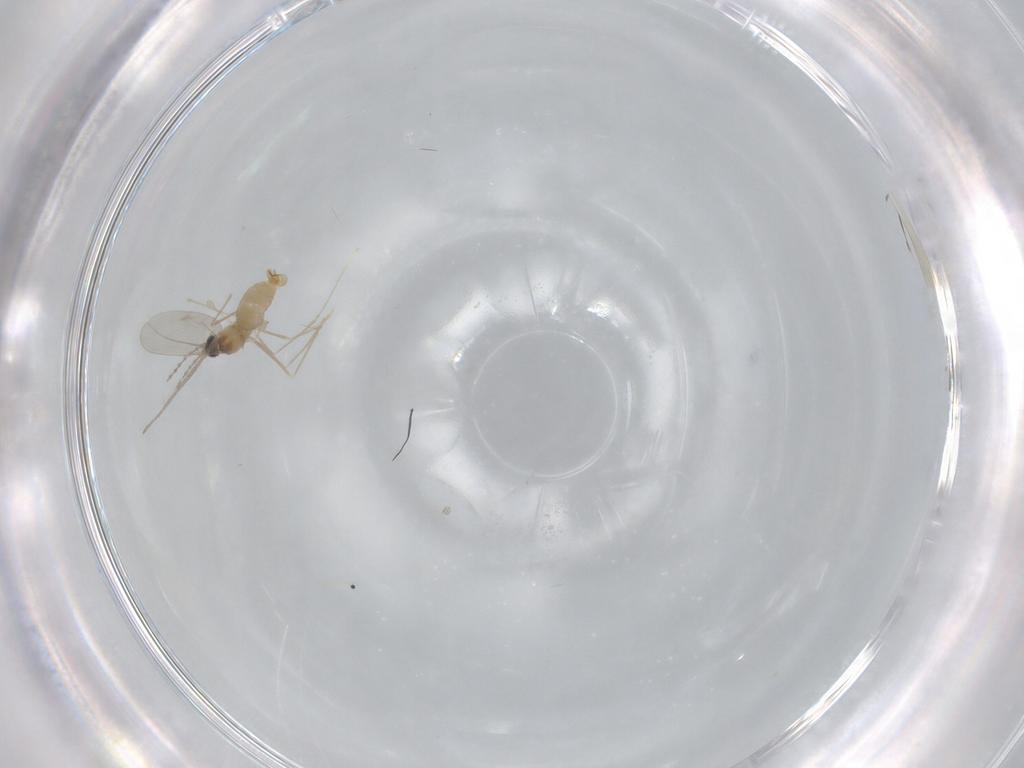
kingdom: Animalia
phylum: Arthropoda
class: Insecta
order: Diptera
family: Cecidomyiidae
